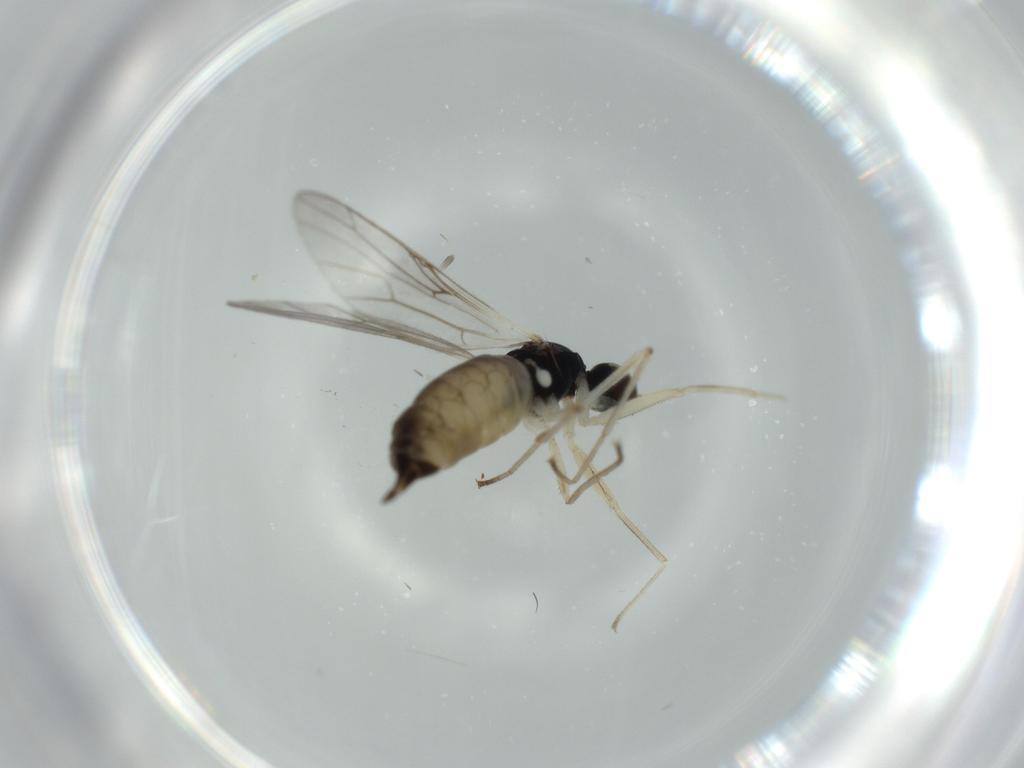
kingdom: Animalia
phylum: Arthropoda
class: Insecta
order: Diptera
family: Empididae
